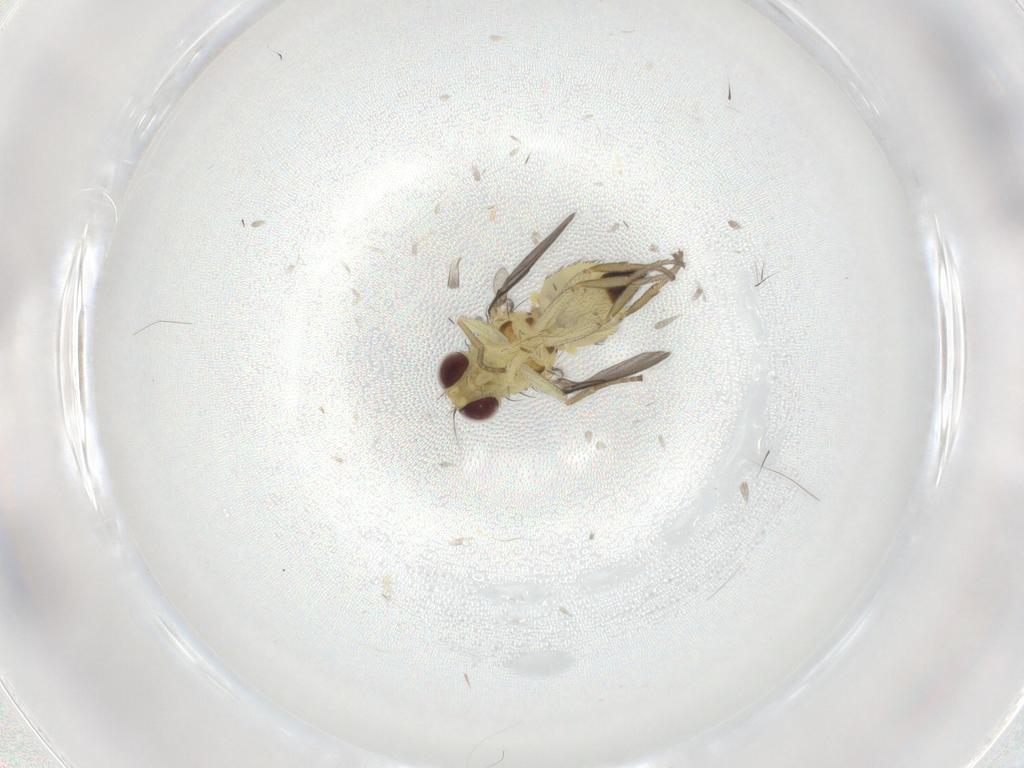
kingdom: Animalia
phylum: Arthropoda
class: Insecta
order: Diptera
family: Agromyzidae
